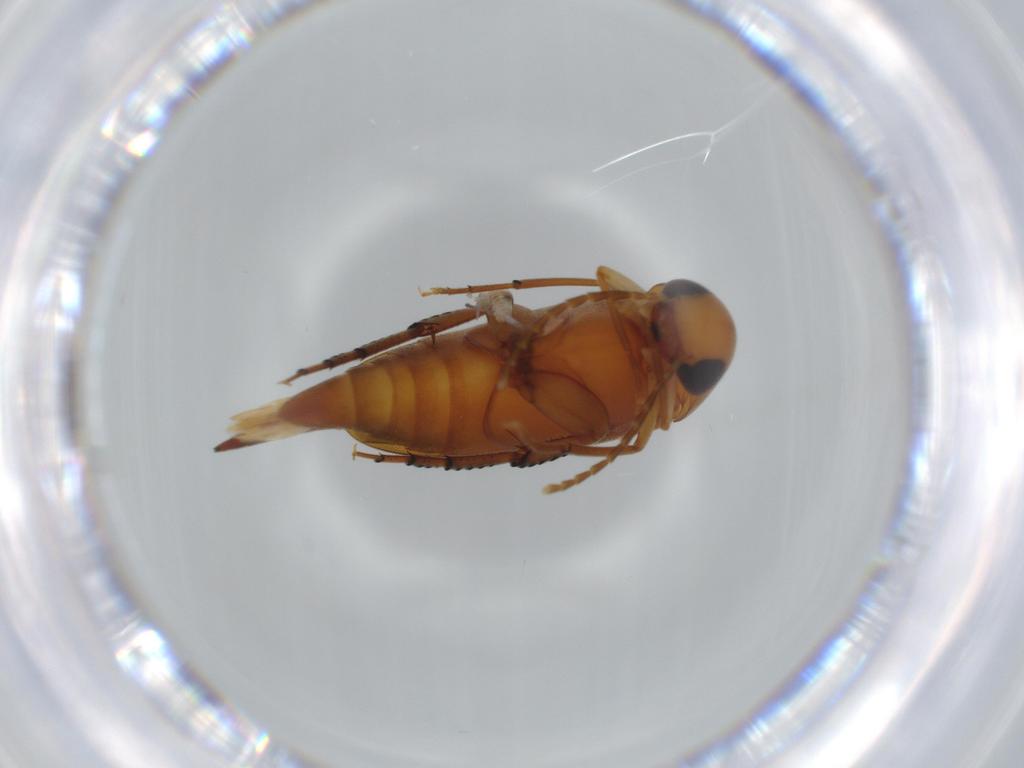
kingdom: Animalia
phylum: Arthropoda
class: Insecta
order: Coleoptera
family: Mordellidae
